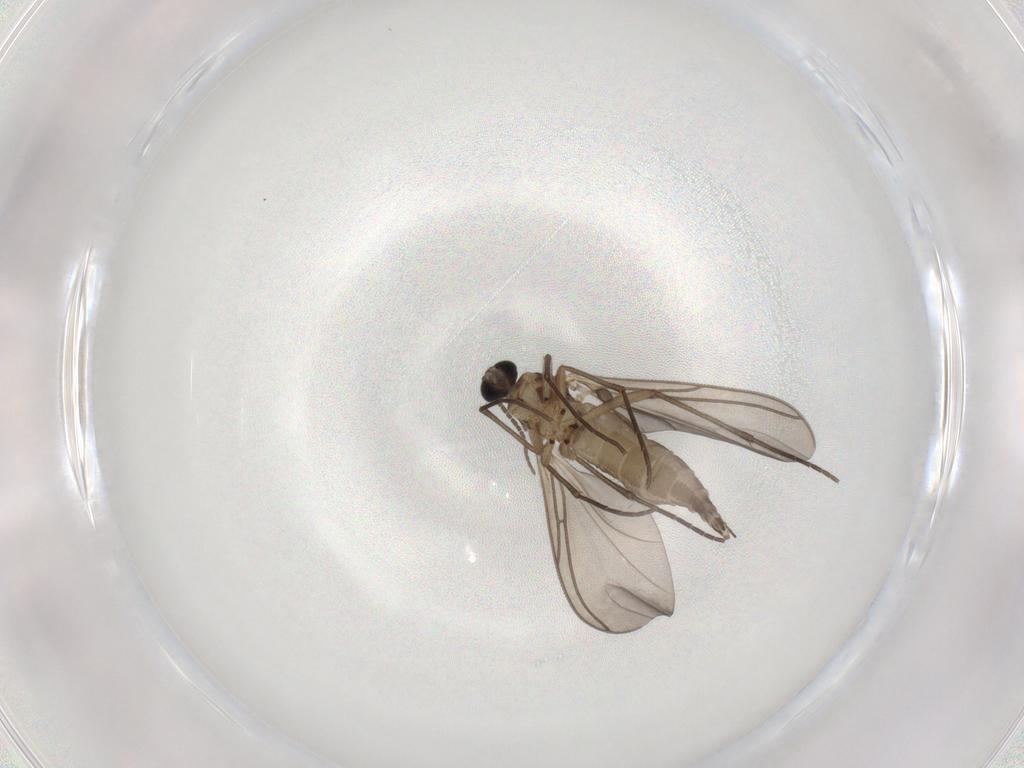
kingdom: Animalia
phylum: Arthropoda
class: Insecta
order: Diptera
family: Sciaridae
